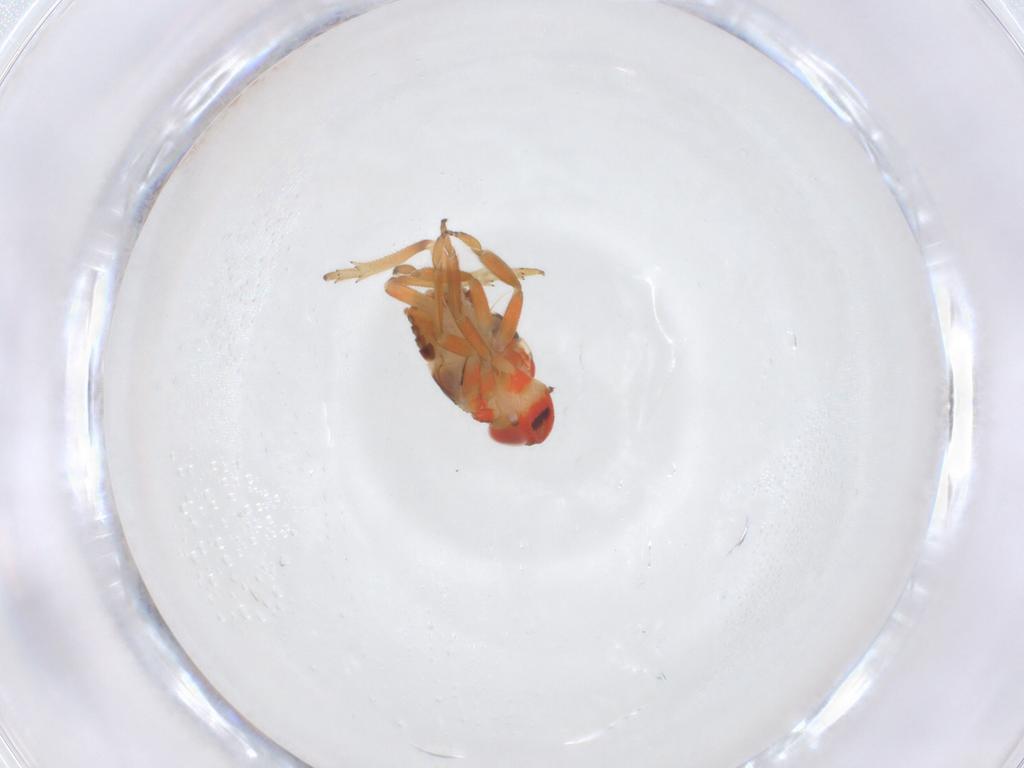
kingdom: Animalia
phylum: Arthropoda
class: Insecta
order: Hemiptera
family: Issidae
